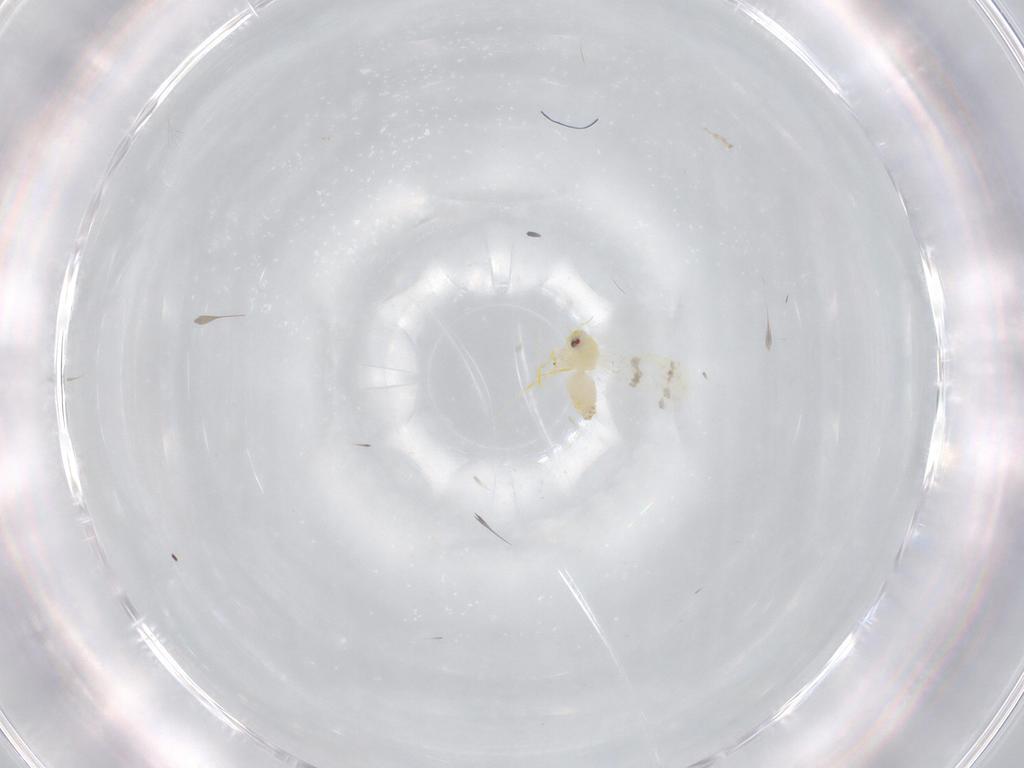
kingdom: Animalia
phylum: Arthropoda
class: Insecta
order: Hemiptera
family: Aleyrodidae
